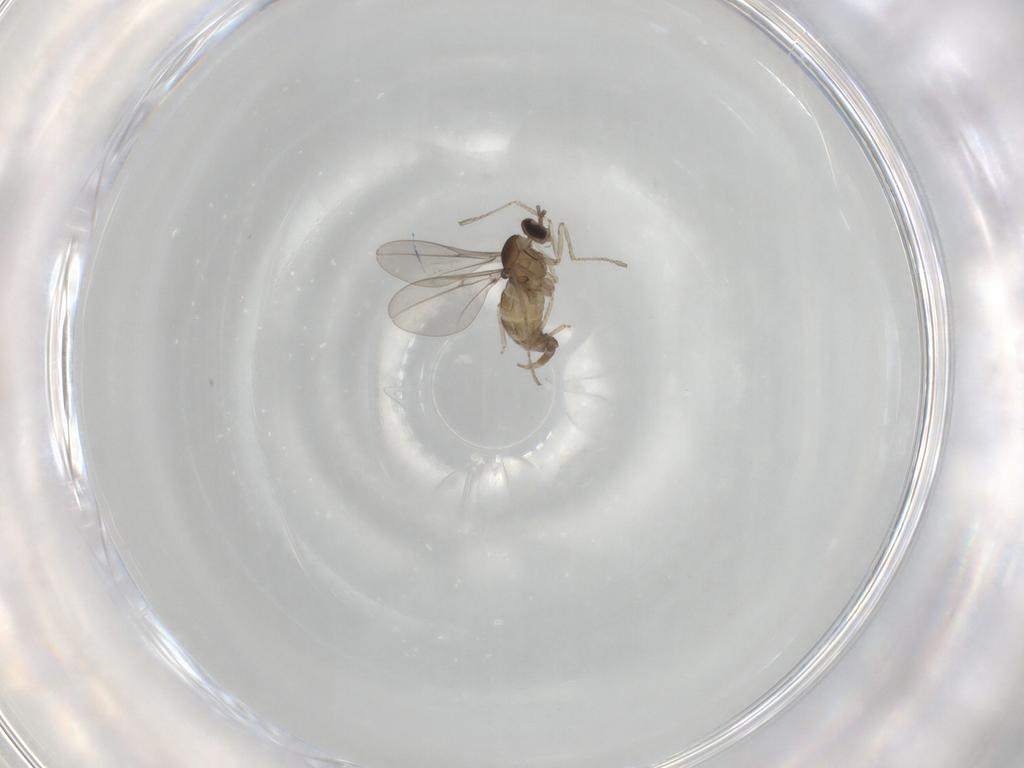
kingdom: Animalia
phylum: Arthropoda
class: Insecta
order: Diptera
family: Cecidomyiidae
